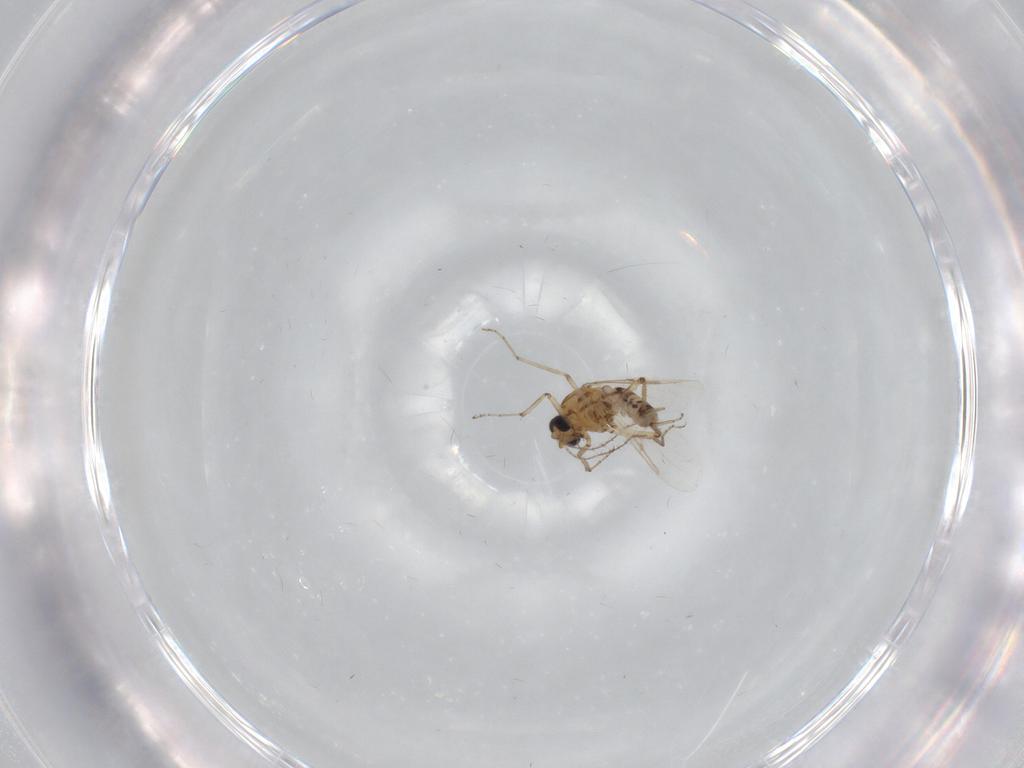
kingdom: Animalia
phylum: Arthropoda
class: Insecta
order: Diptera
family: Ceratopogonidae
